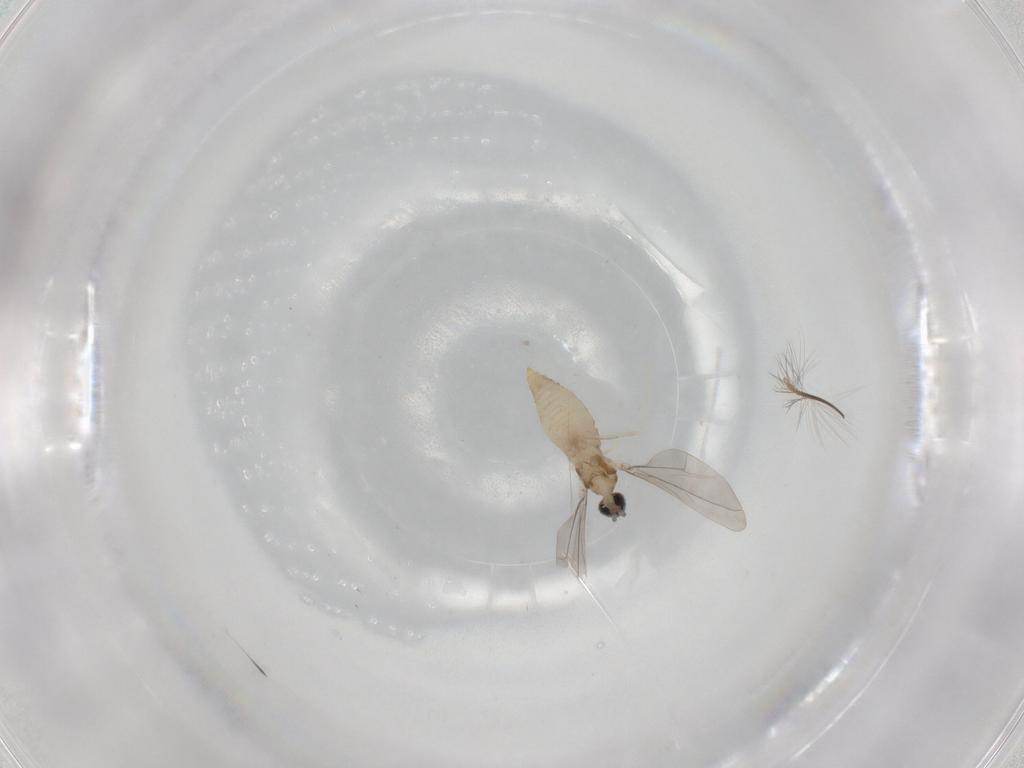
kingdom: Animalia
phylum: Arthropoda
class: Insecta
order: Diptera
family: Cecidomyiidae
